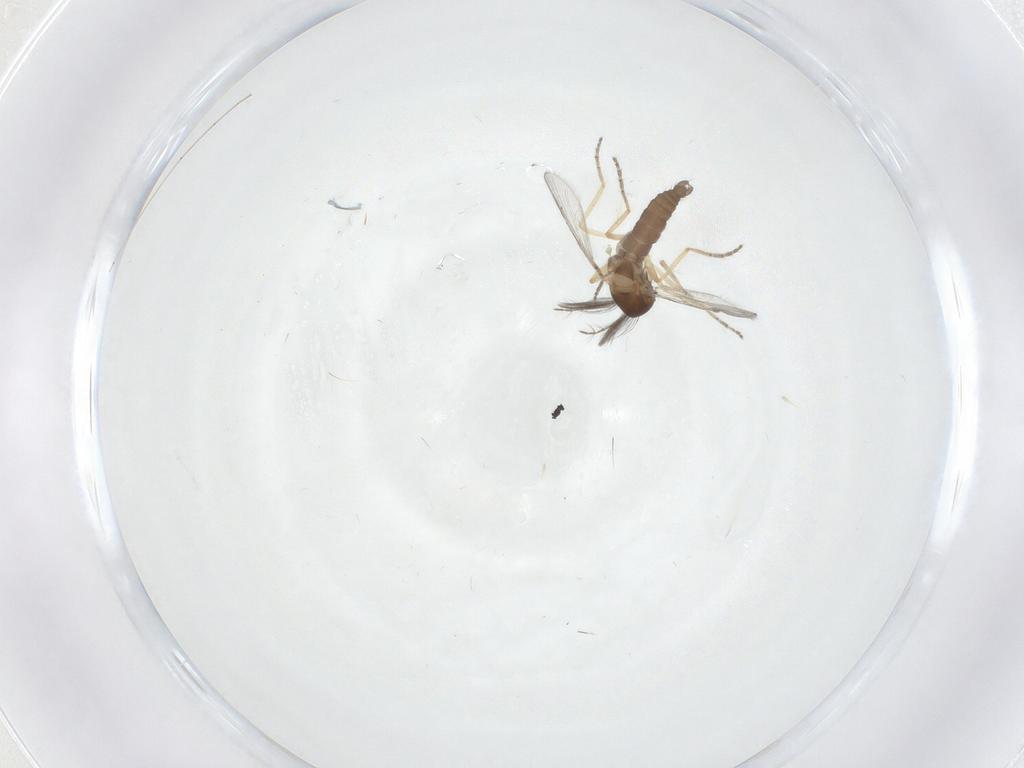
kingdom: Animalia
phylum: Arthropoda
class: Insecta
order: Diptera
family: Ceratopogonidae
